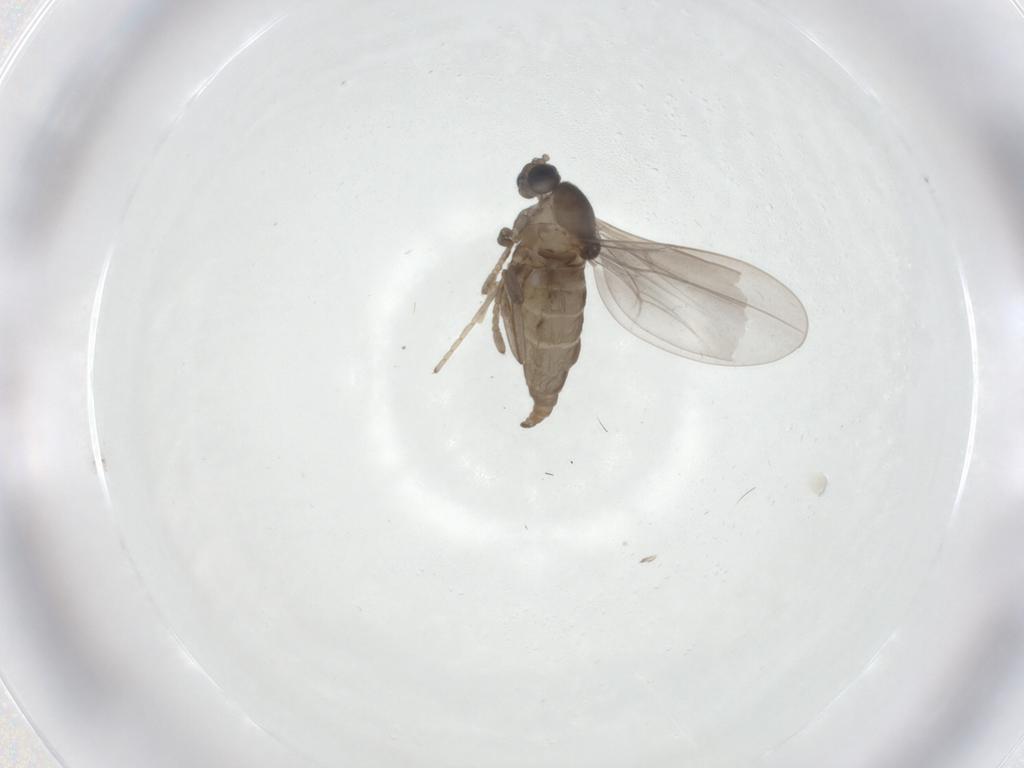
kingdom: Animalia
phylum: Arthropoda
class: Insecta
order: Diptera
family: Cecidomyiidae
